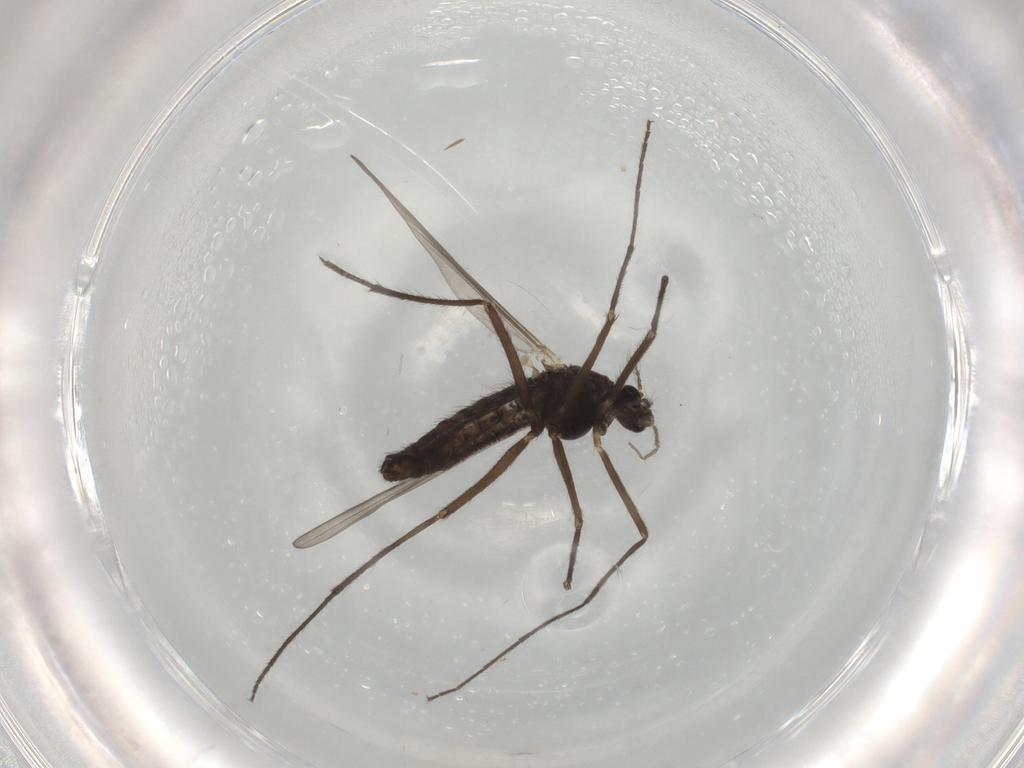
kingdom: Animalia
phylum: Arthropoda
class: Insecta
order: Diptera
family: Chironomidae
